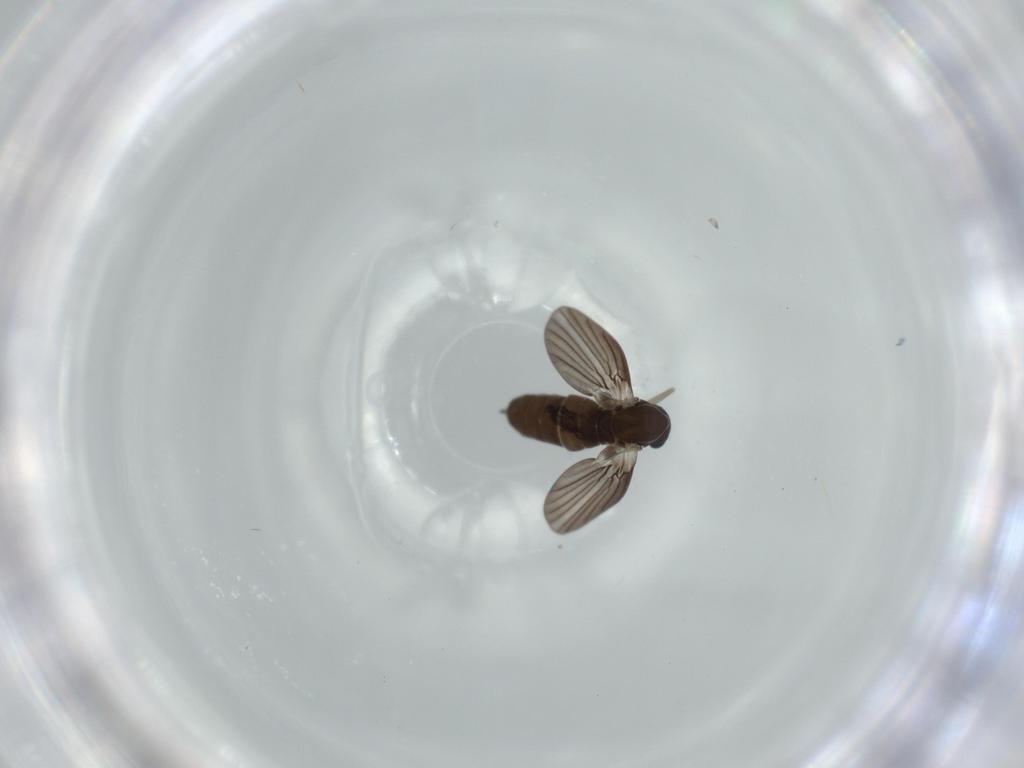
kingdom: Animalia
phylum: Arthropoda
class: Insecta
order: Diptera
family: Cecidomyiidae
